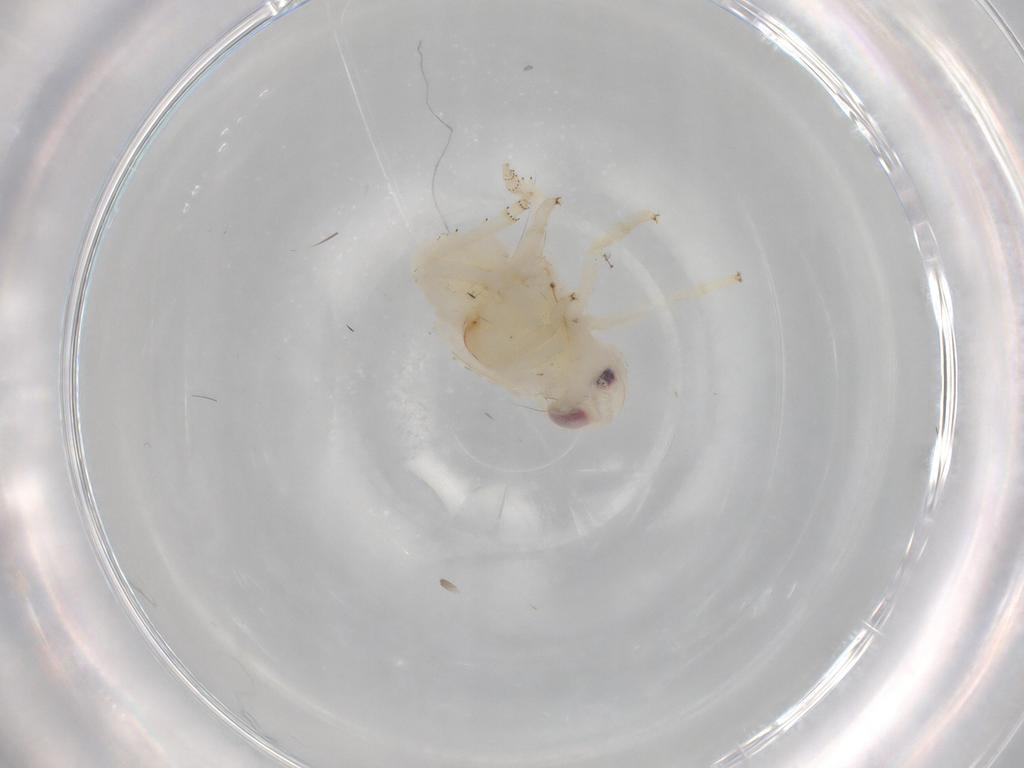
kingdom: Animalia
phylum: Arthropoda
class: Insecta
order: Hemiptera
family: Nogodinidae
